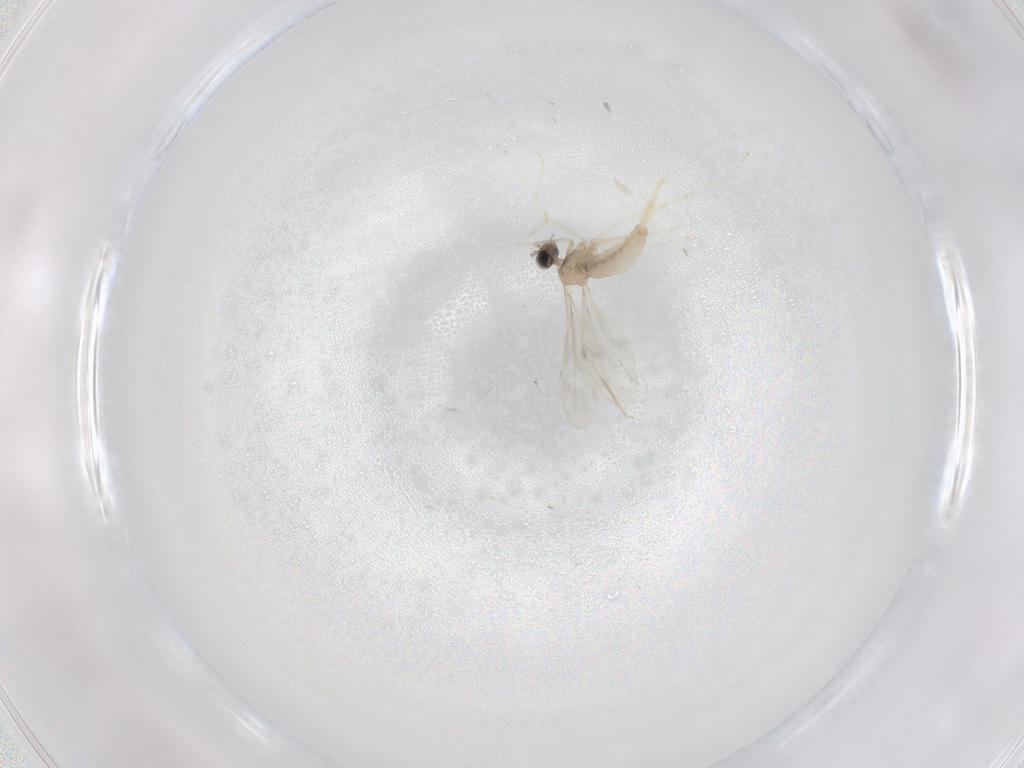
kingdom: Animalia
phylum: Arthropoda
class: Insecta
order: Diptera
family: Cecidomyiidae
